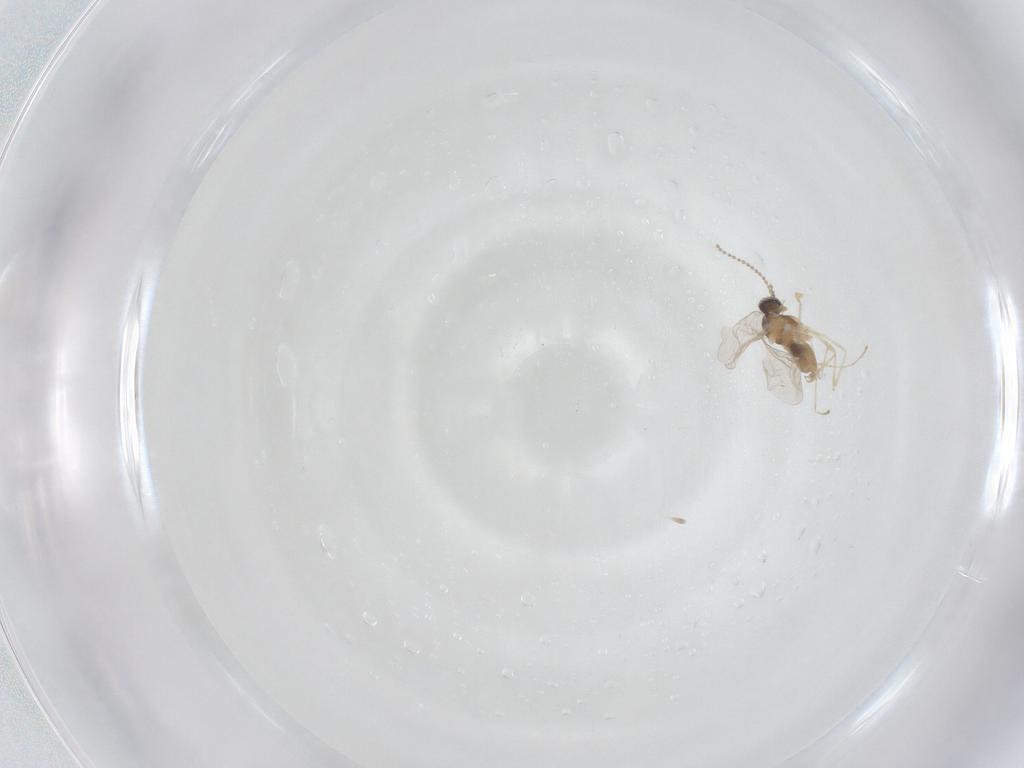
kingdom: Animalia
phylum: Arthropoda
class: Insecta
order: Diptera
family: Cecidomyiidae
